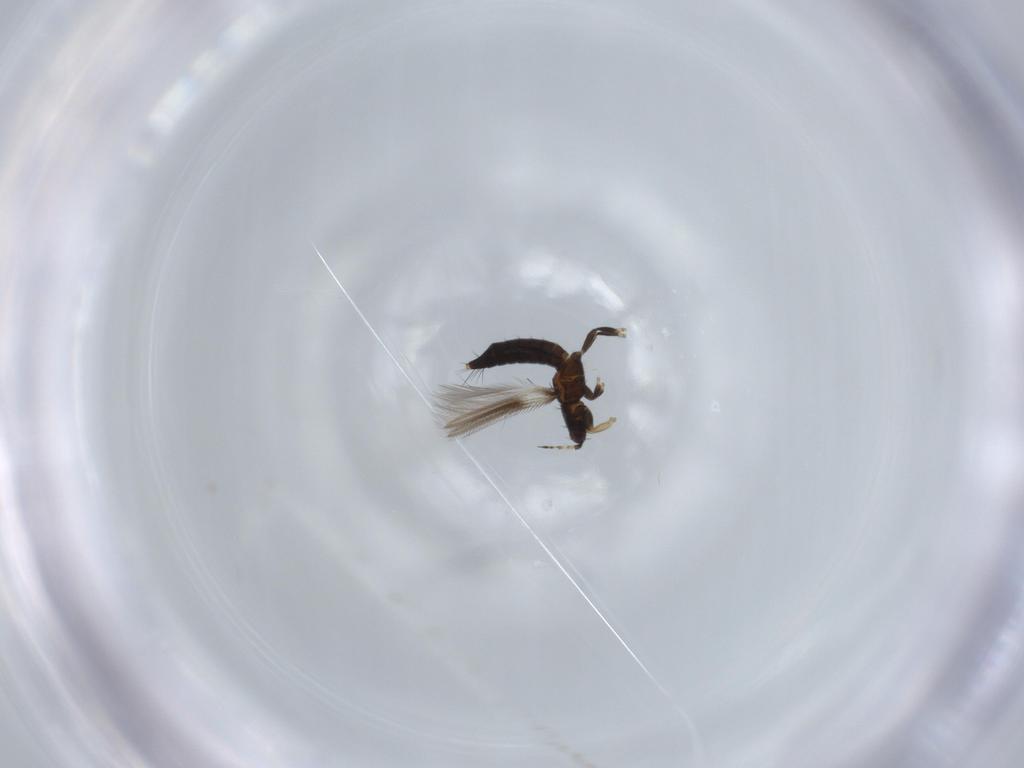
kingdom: Animalia
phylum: Arthropoda
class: Insecta
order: Thysanoptera
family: Thripidae
